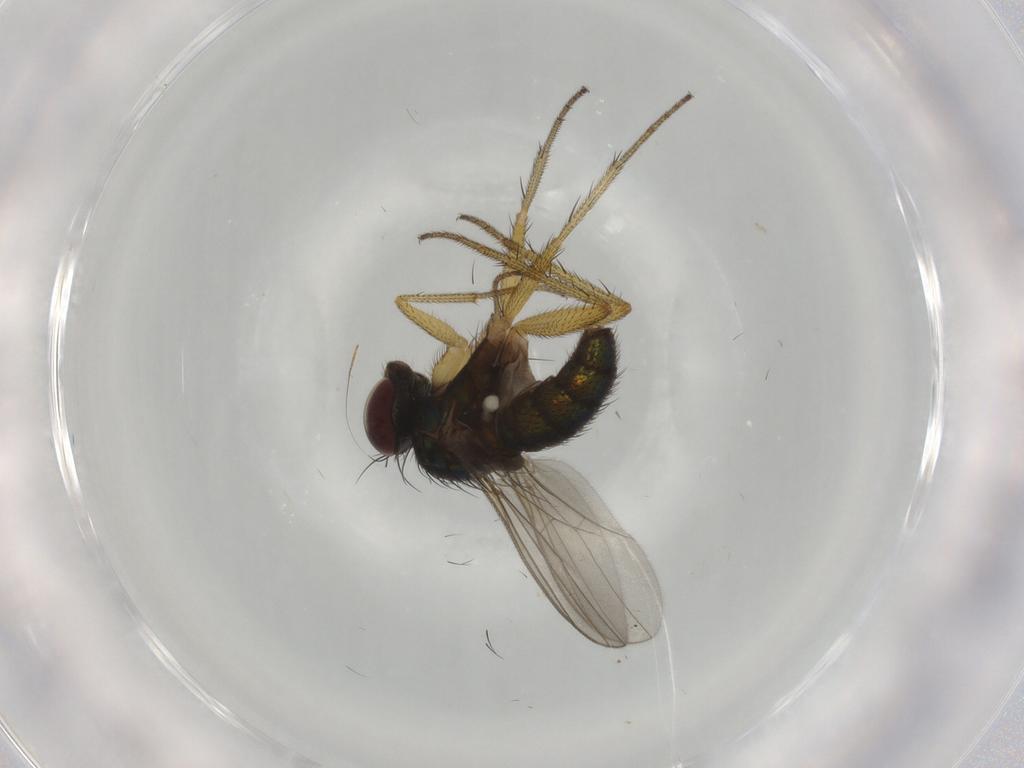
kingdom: Animalia
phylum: Arthropoda
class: Insecta
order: Diptera
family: Dolichopodidae
